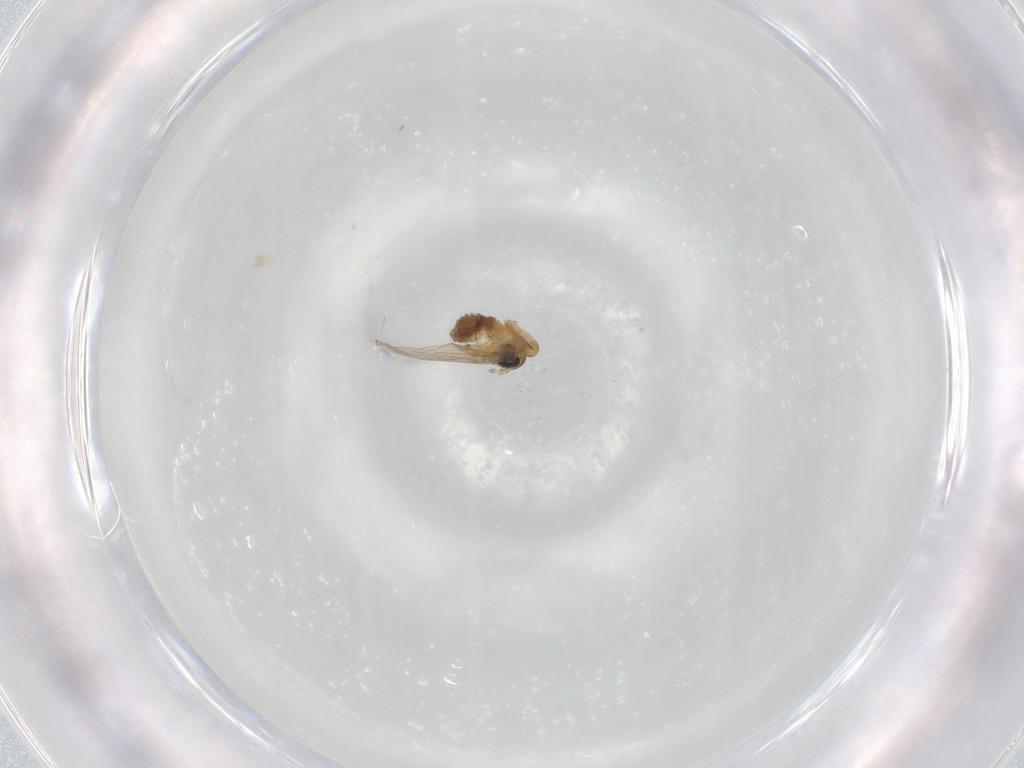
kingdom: Animalia
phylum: Arthropoda
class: Insecta
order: Diptera
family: Psychodidae
